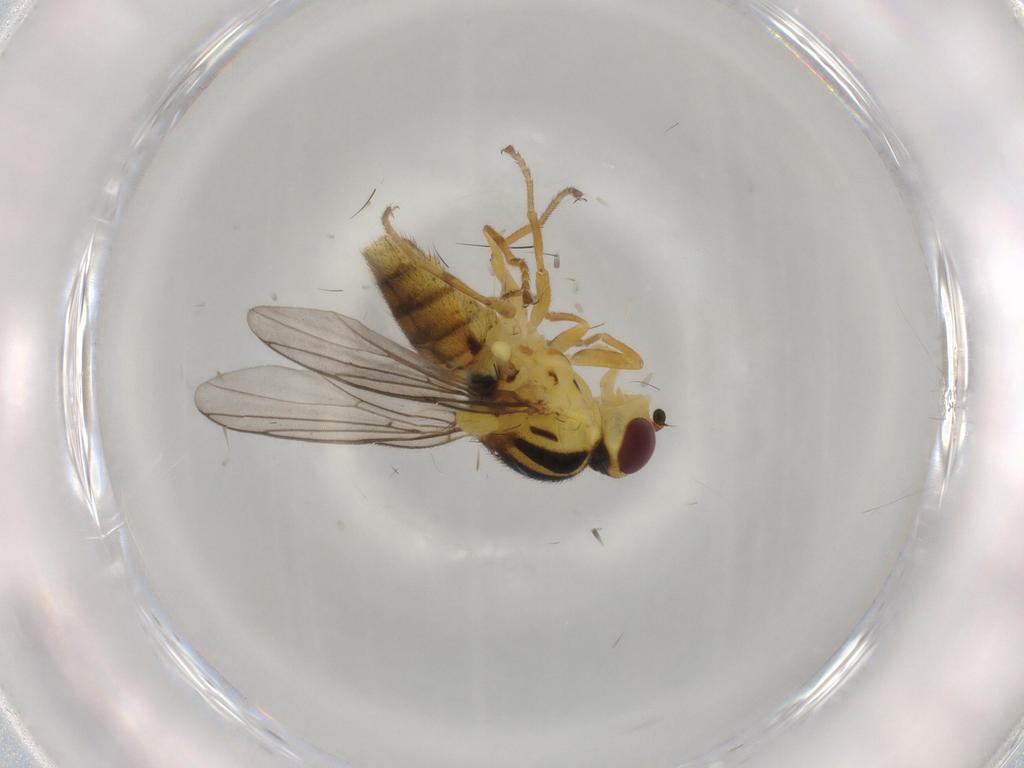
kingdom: Animalia
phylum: Arthropoda
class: Insecta
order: Diptera
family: Chloropidae
